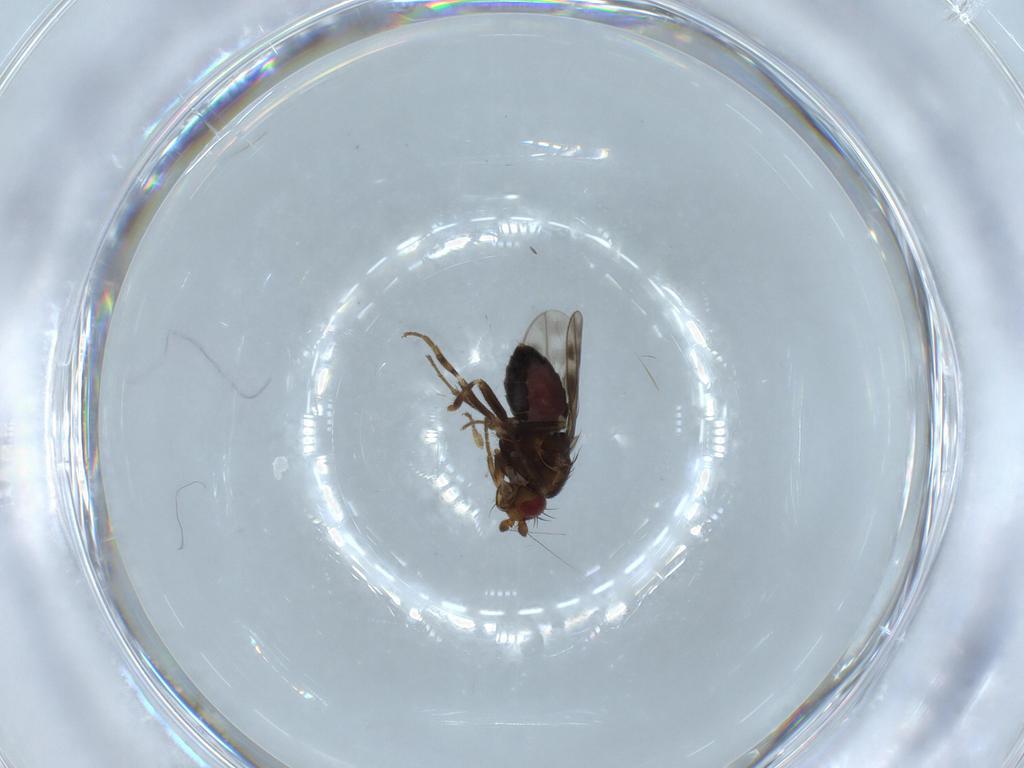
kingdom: Animalia
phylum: Arthropoda
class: Insecta
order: Diptera
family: Sphaeroceridae
